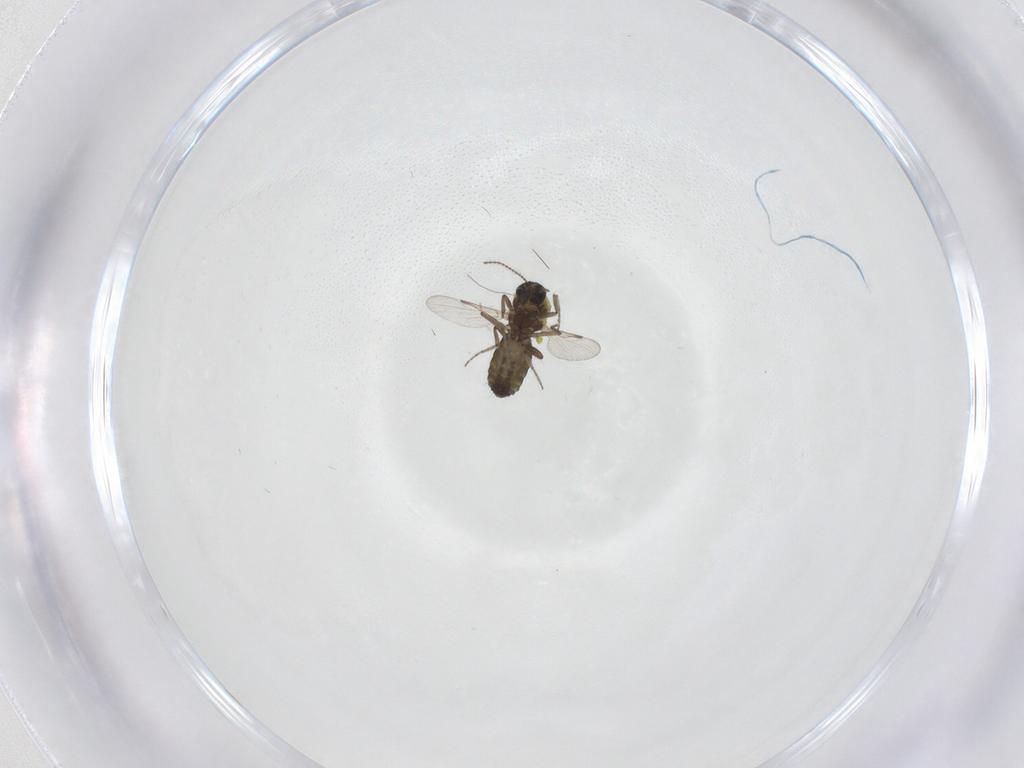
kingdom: Animalia
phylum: Arthropoda
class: Insecta
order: Diptera
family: Ceratopogonidae
